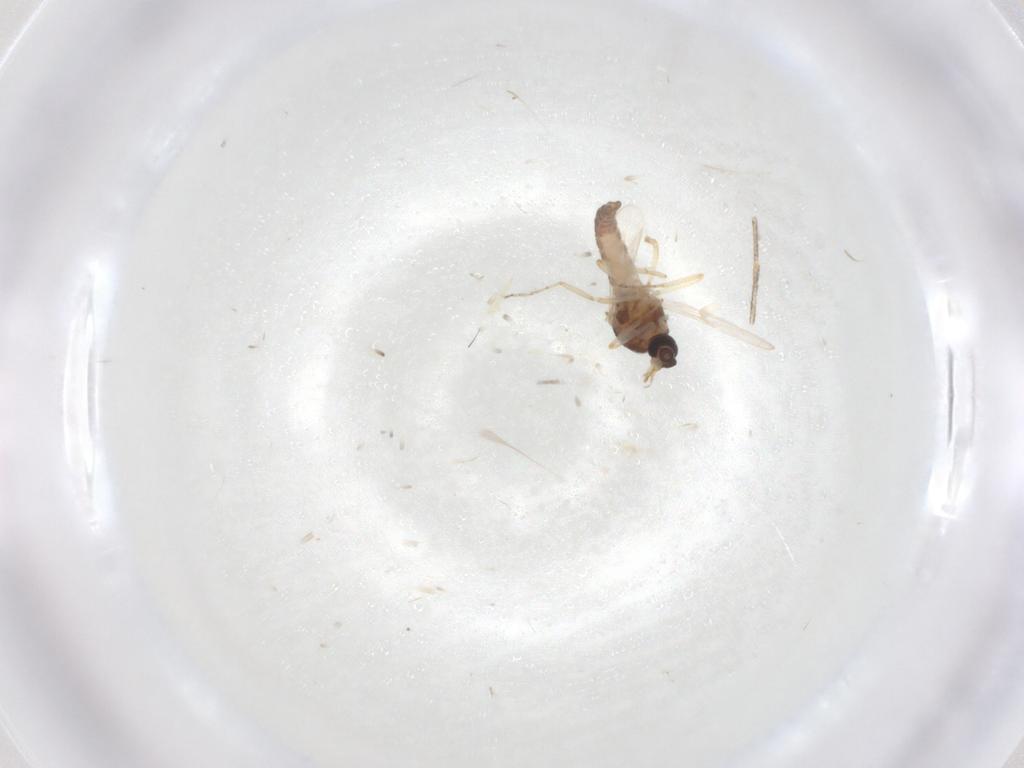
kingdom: Animalia
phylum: Arthropoda
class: Insecta
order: Diptera
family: Ceratopogonidae
